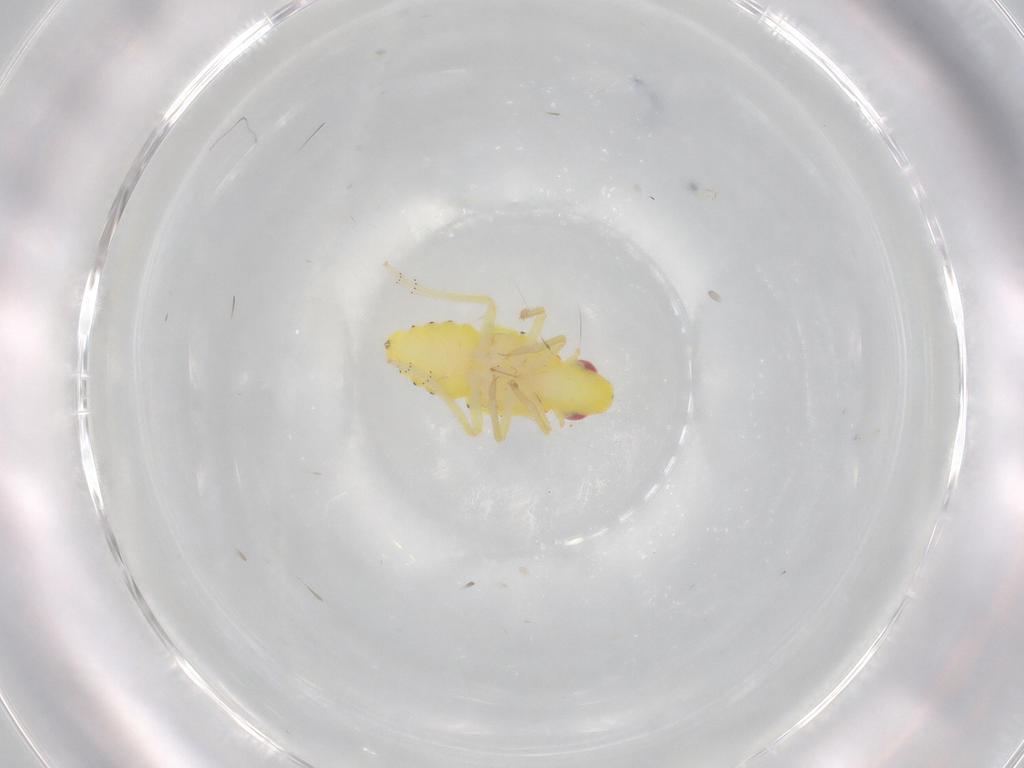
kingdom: Animalia
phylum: Arthropoda
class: Insecta
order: Hemiptera
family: Tropiduchidae
